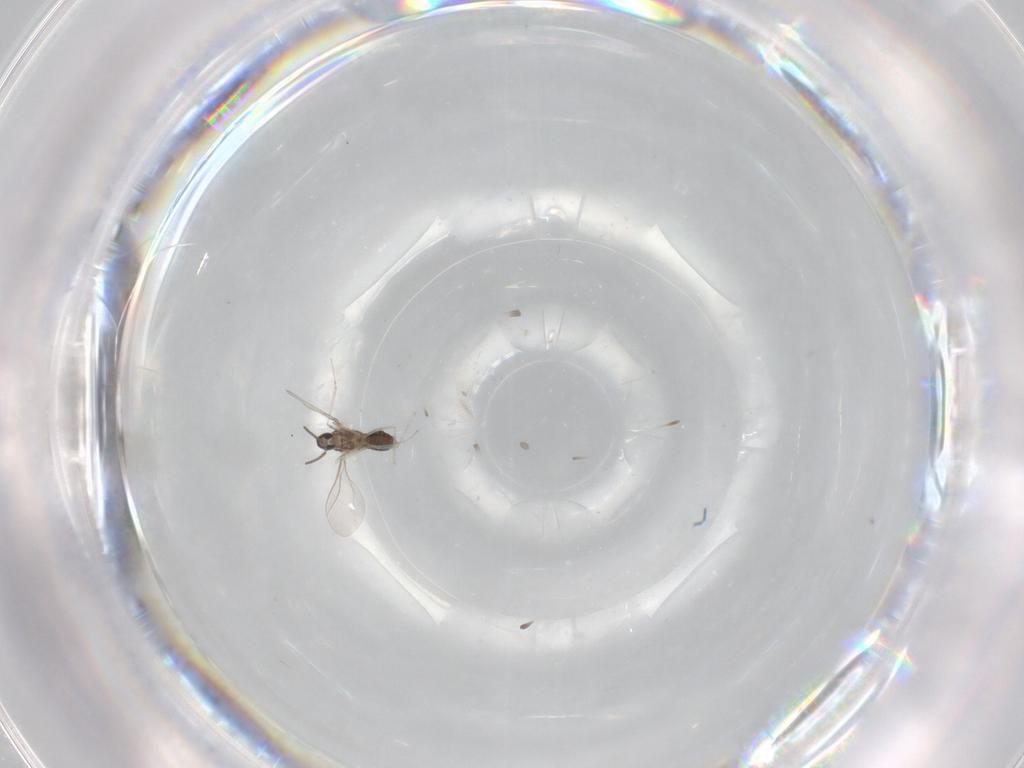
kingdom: Animalia
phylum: Arthropoda
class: Insecta
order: Diptera
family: Cecidomyiidae
